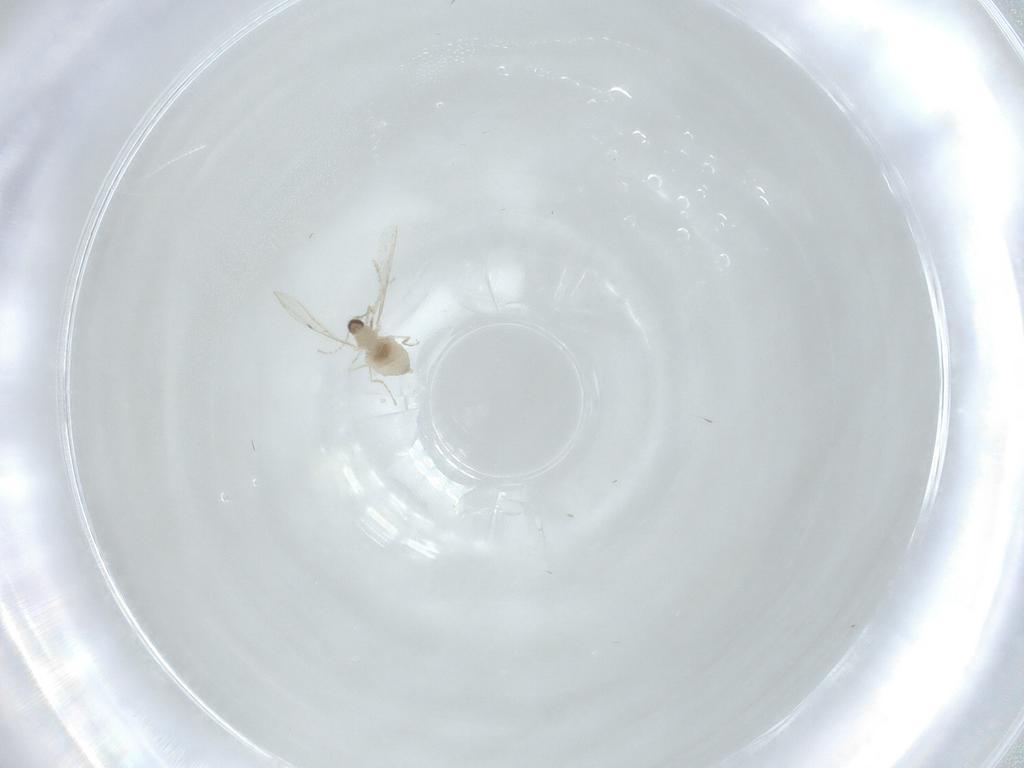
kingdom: Animalia
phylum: Arthropoda
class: Insecta
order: Diptera
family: Cecidomyiidae
